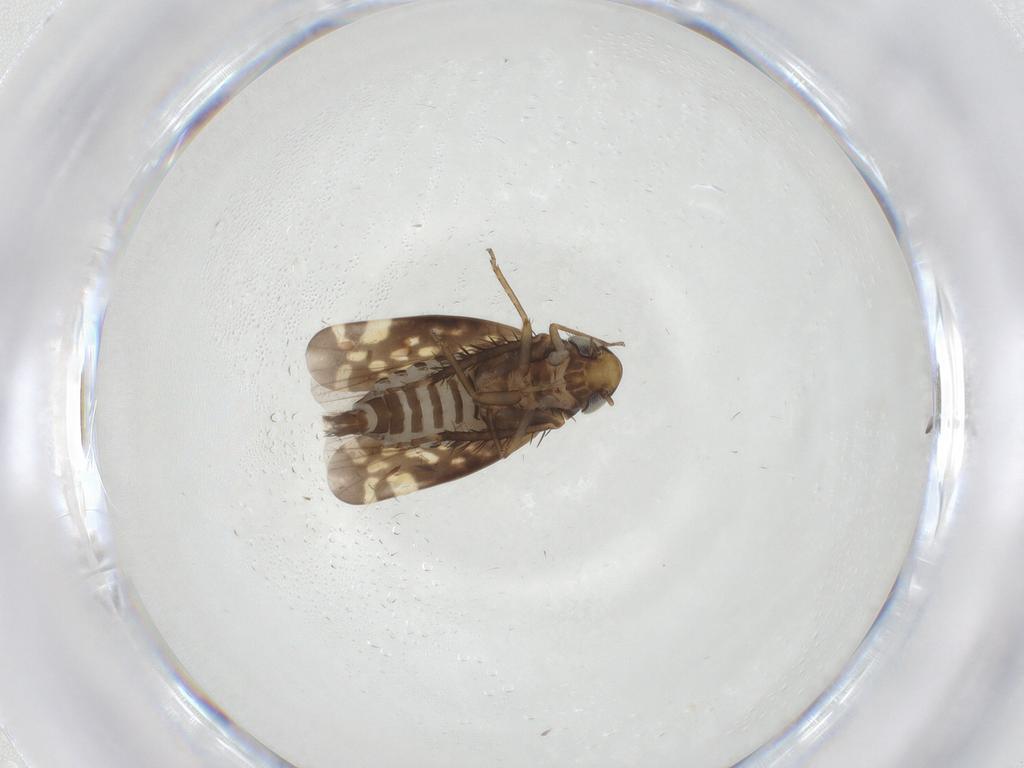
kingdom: Animalia
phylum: Arthropoda
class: Insecta
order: Hemiptera
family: Cicadellidae
